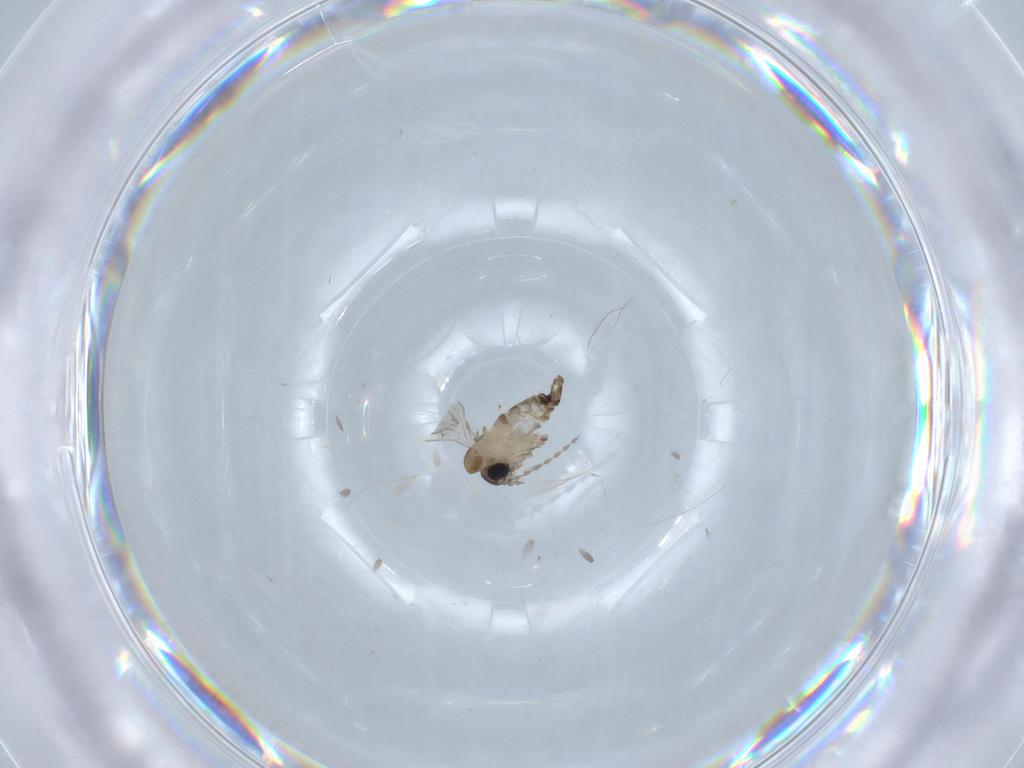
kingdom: Animalia
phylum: Arthropoda
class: Insecta
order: Diptera
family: Psychodidae
